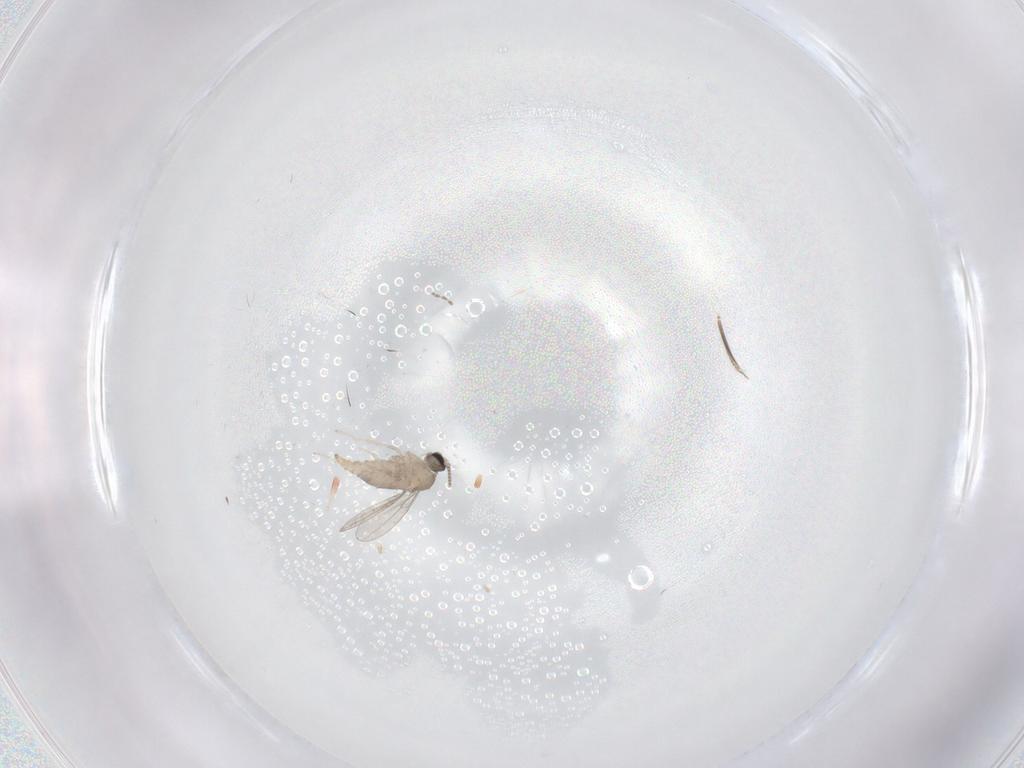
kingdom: Animalia
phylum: Arthropoda
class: Insecta
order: Diptera
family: Cecidomyiidae
